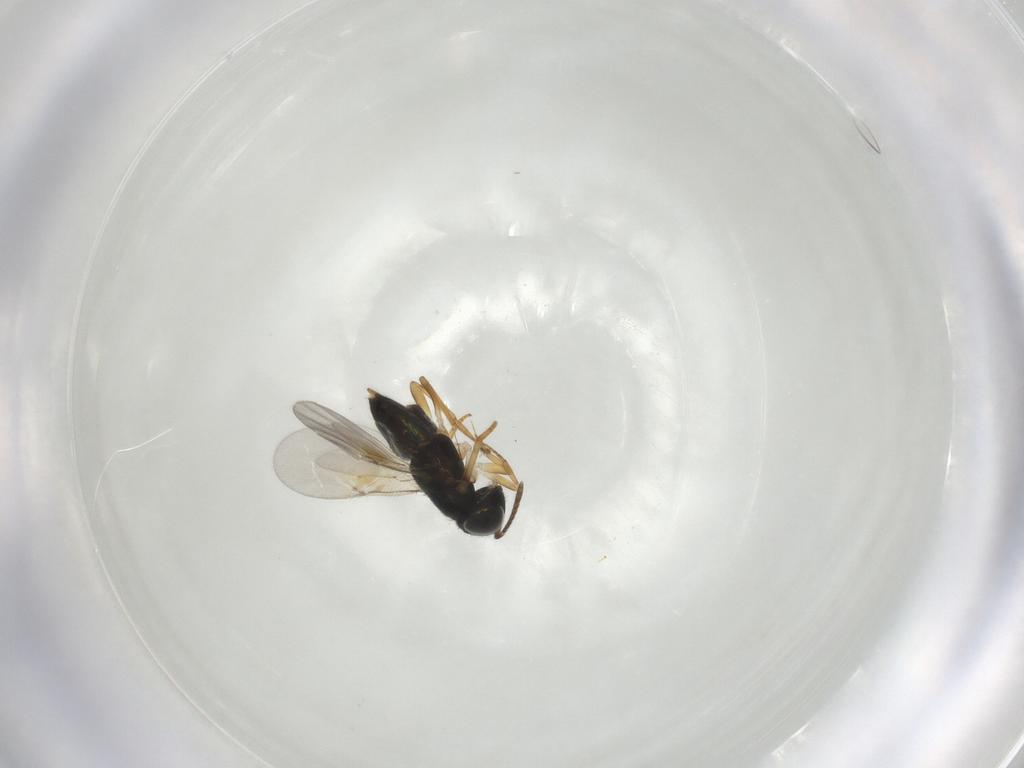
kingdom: Animalia
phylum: Arthropoda
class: Insecta
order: Hymenoptera
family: Encyrtidae
